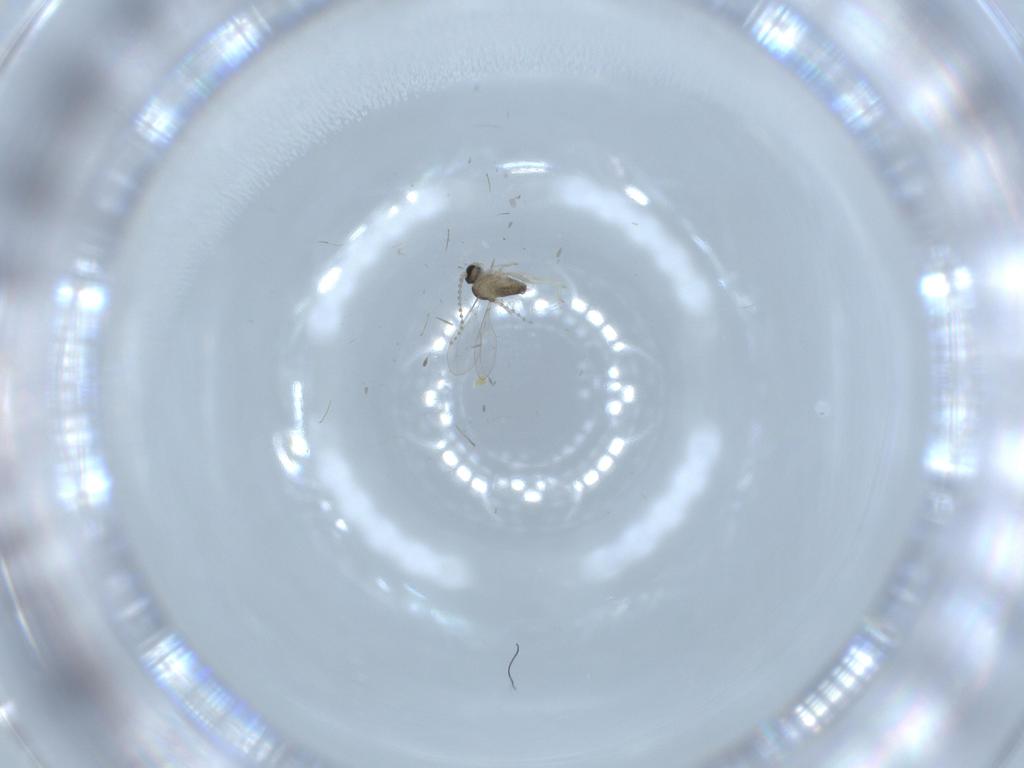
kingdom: Animalia
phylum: Arthropoda
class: Insecta
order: Diptera
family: Cecidomyiidae
